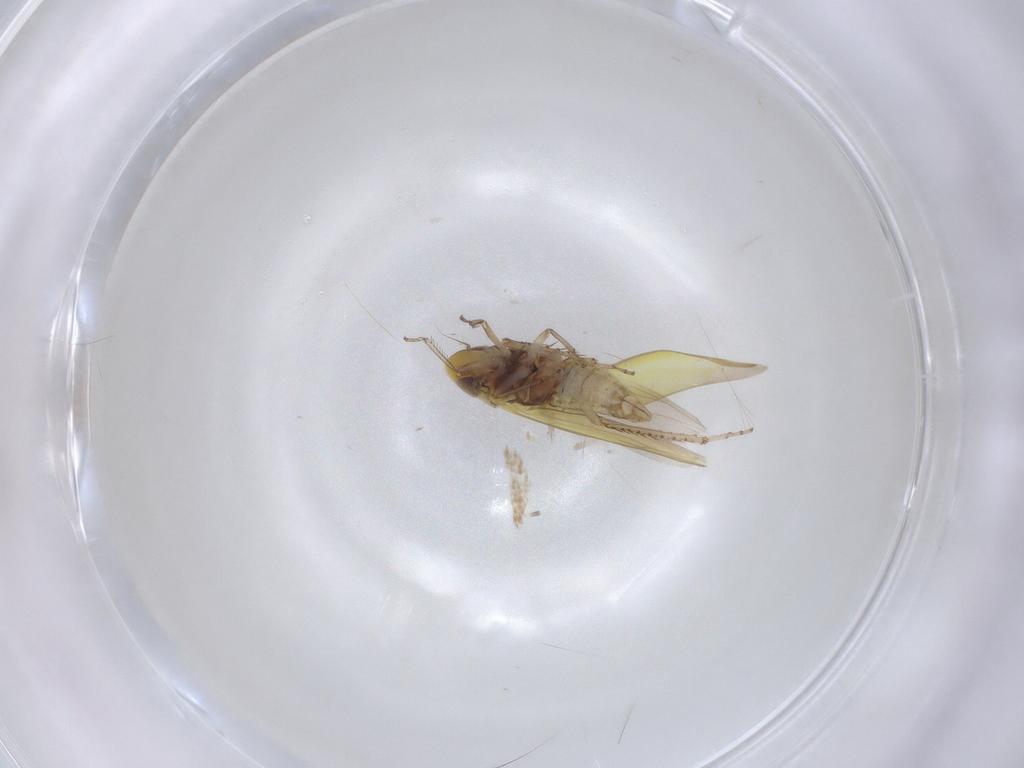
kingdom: Animalia
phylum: Arthropoda
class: Insecta
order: Hemiptera
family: Cicadellidae
